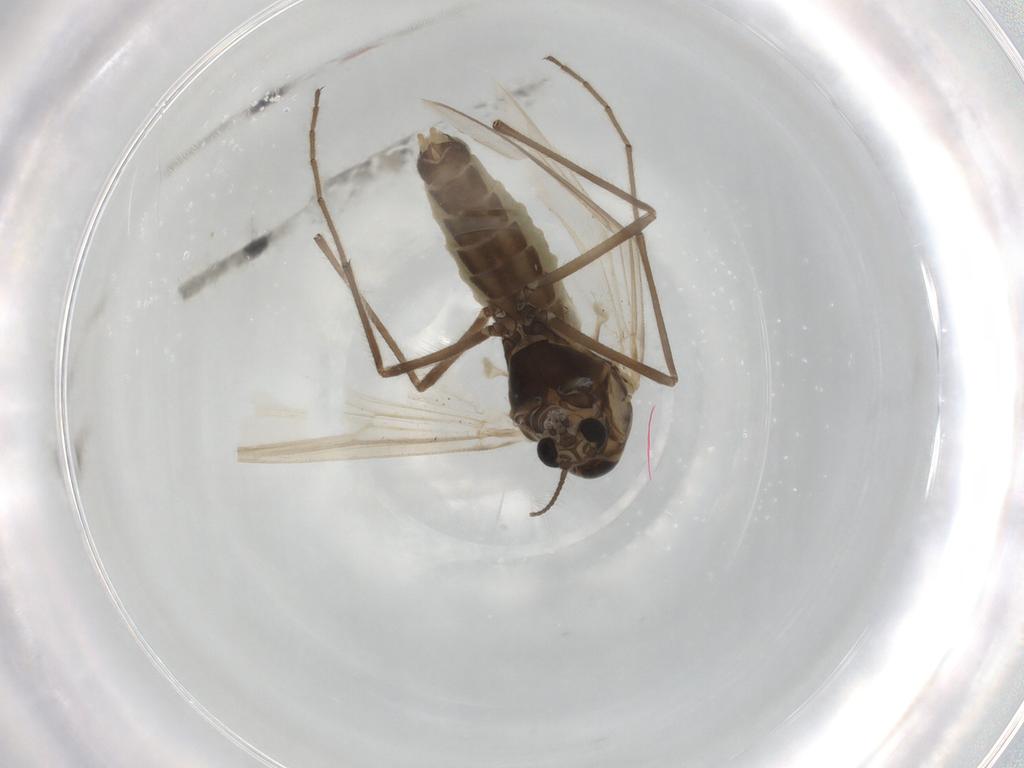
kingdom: Animalia
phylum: Arthropoda
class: Insecta
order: Diptera
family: Chironomidae
